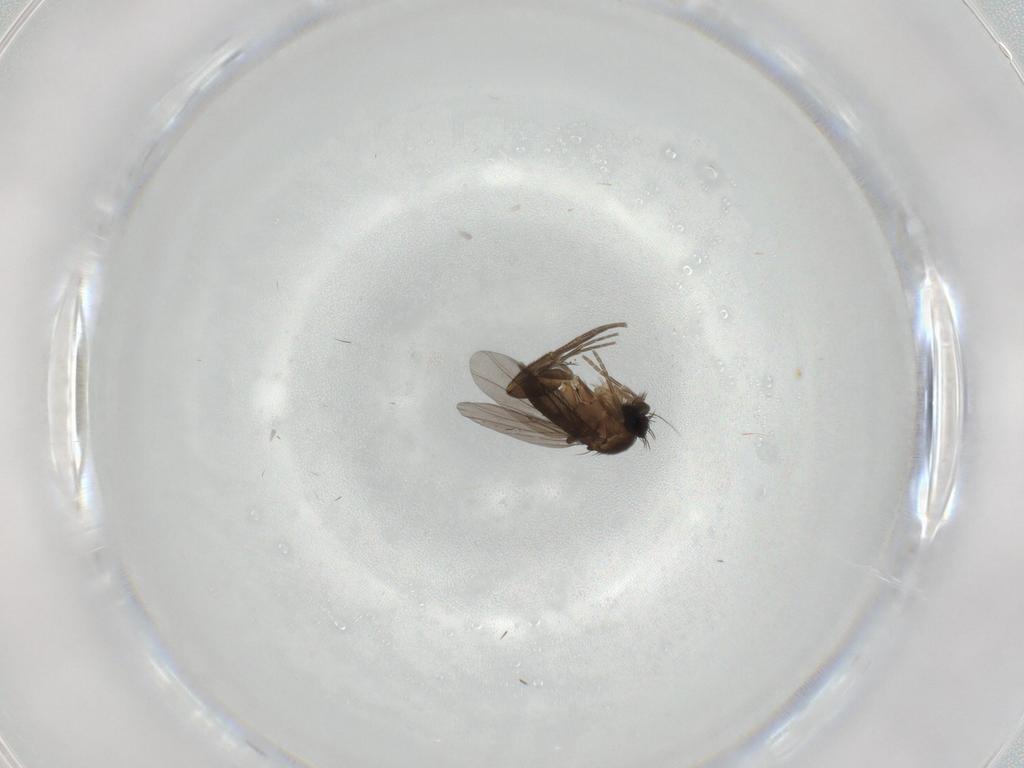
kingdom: Animalia
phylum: Arthropoda
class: Insecta
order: Diptera
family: Phoridae
